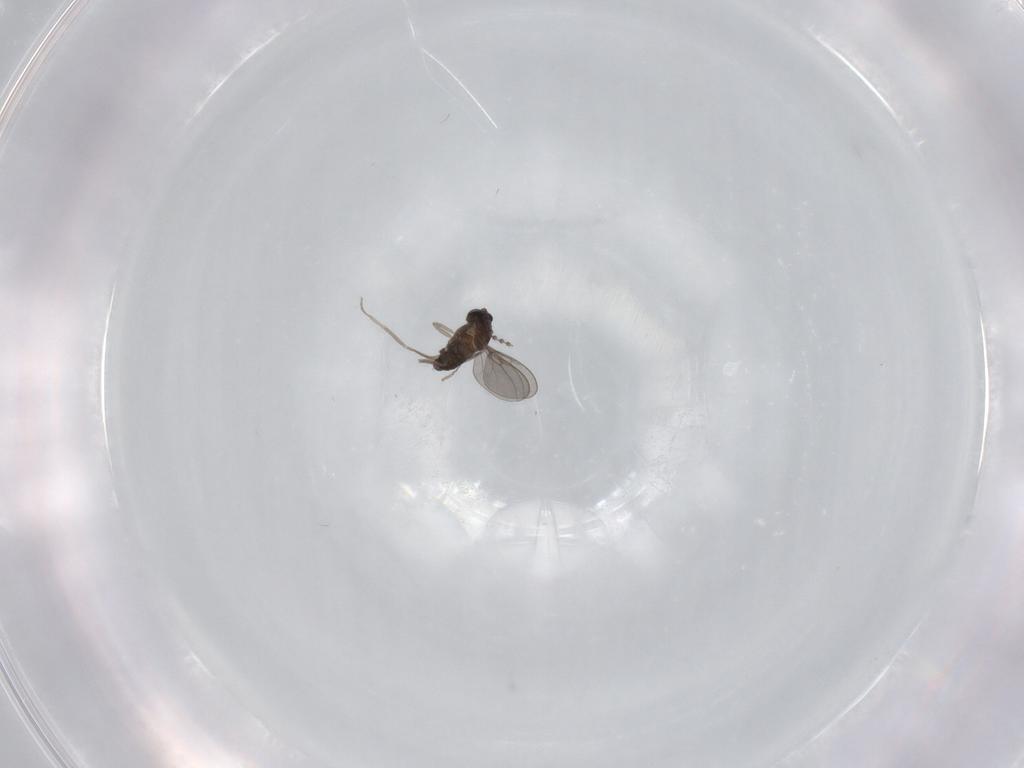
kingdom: Animalia
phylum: Arthropoda
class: Insecta
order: Diptera
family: Cecidomyiidae
